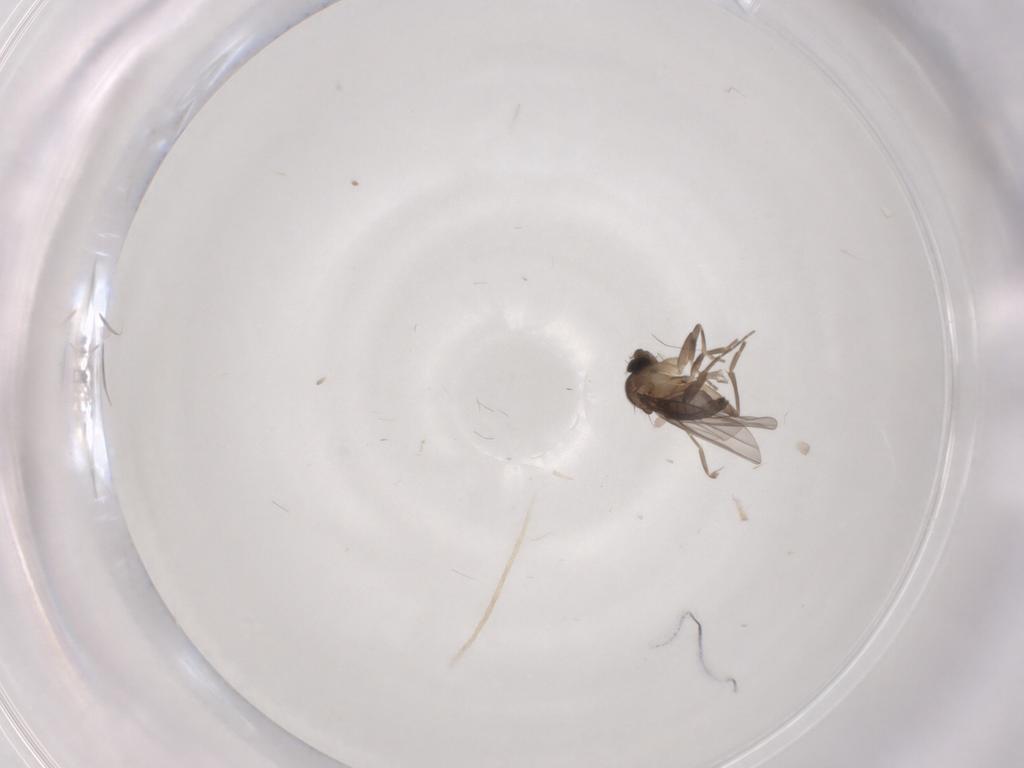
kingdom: Animalia
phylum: Arthropoda
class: Insecta
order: Diptera
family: Phoridae
